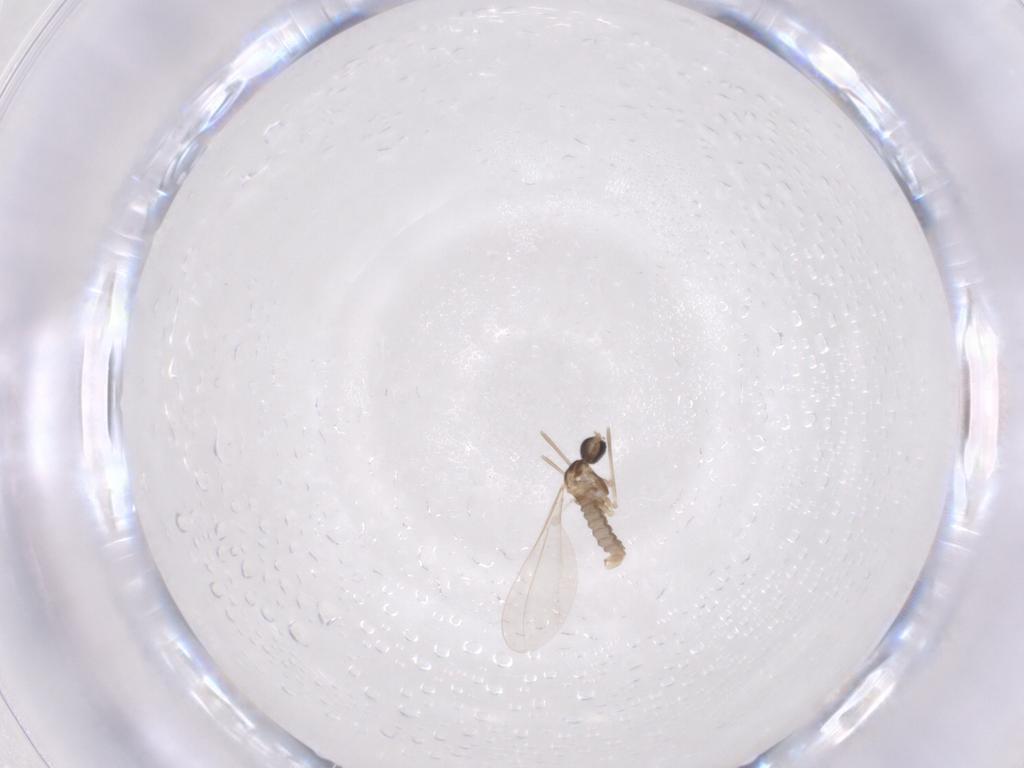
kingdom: Animalia
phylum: Arthropoda
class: Insecta
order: Diptera
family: Cecidomyiidae
